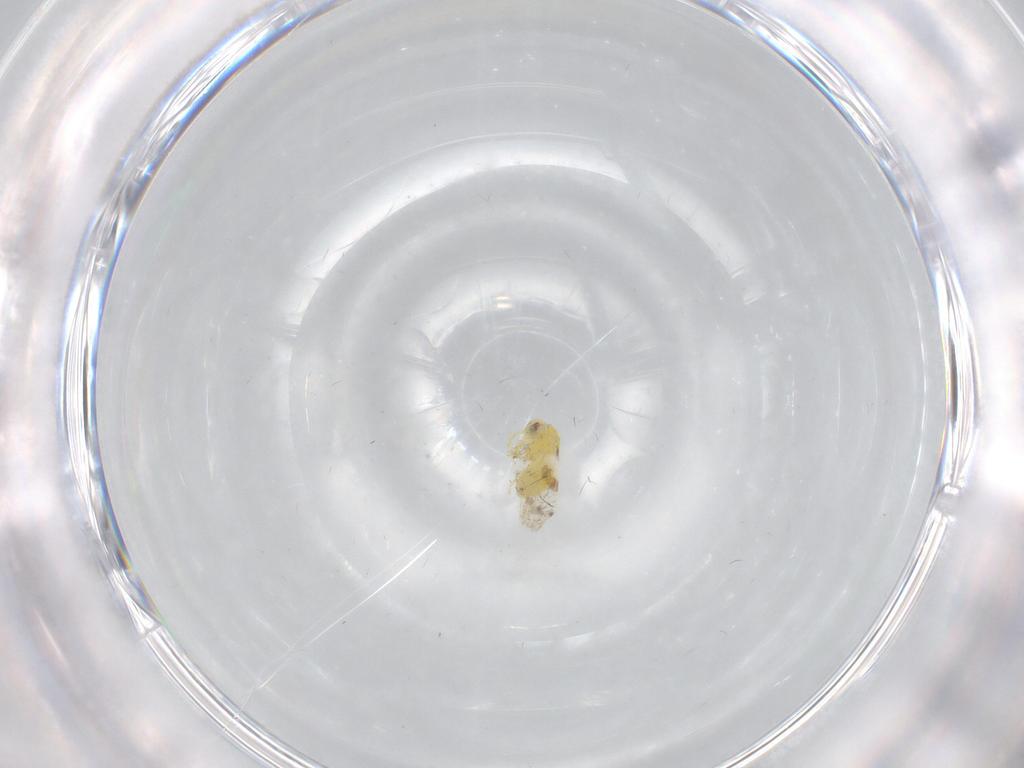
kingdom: Animalia
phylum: Arthropoda
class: Insecta
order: Hemiptera
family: Aleyrodidae
